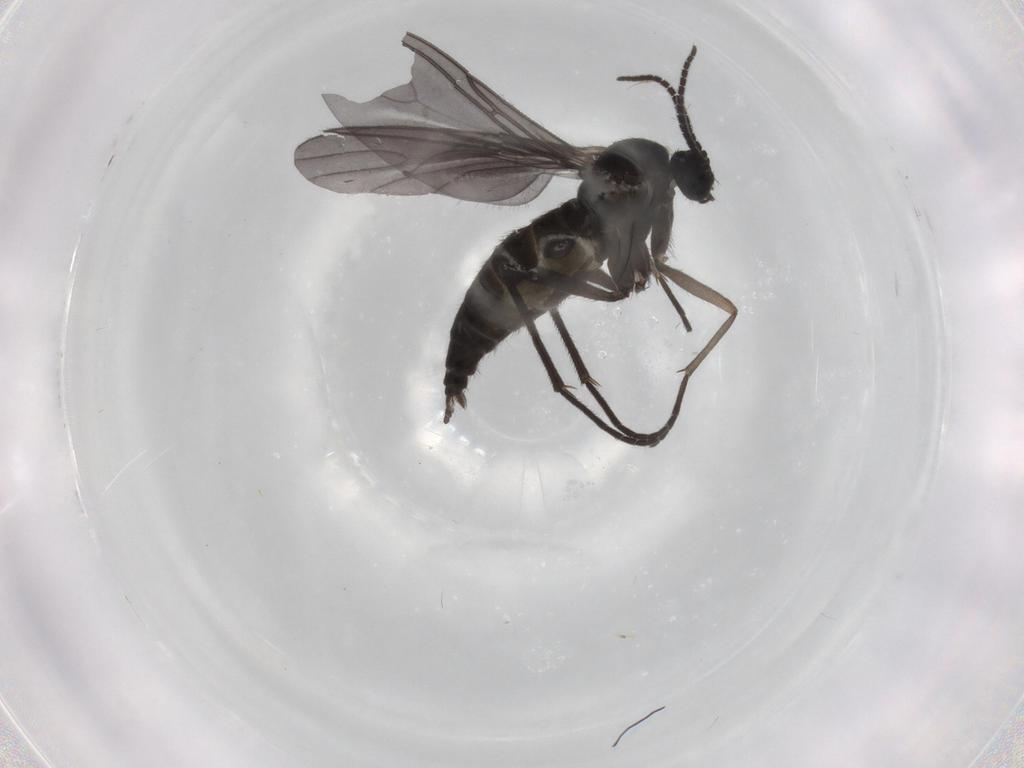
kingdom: Animalia
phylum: Arthropoda
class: Insecta
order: Diptera
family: Sciaridae
